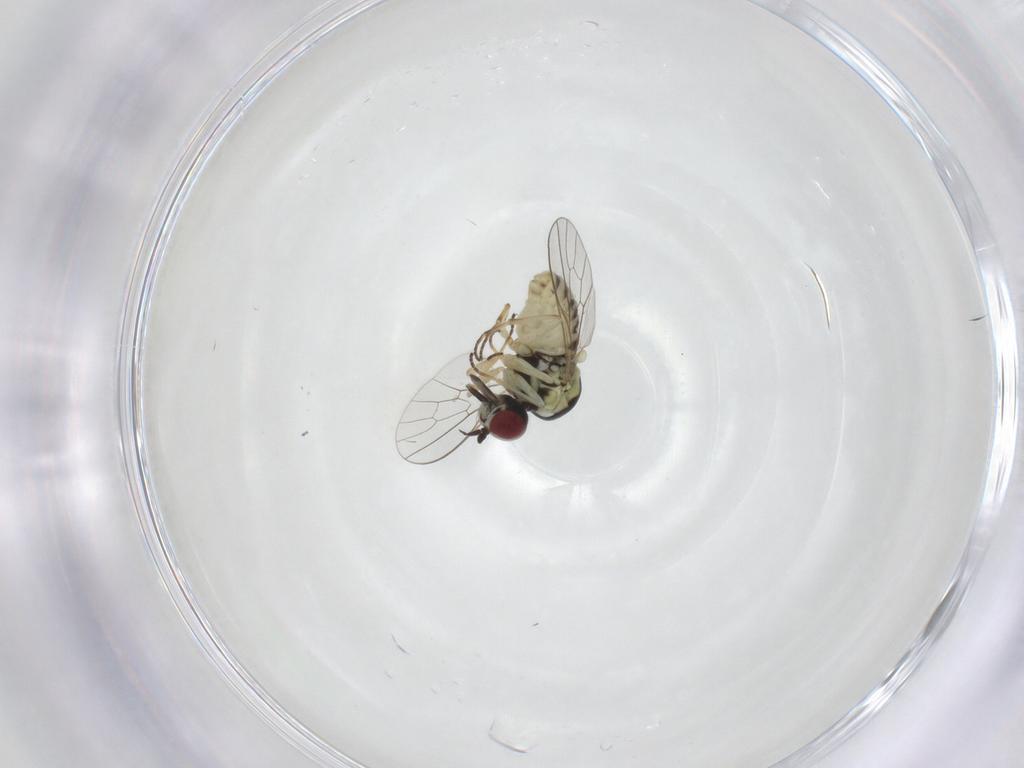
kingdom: Animalia
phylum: Arthropoda
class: Insecta
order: Diptera
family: Mythicomyiidae
